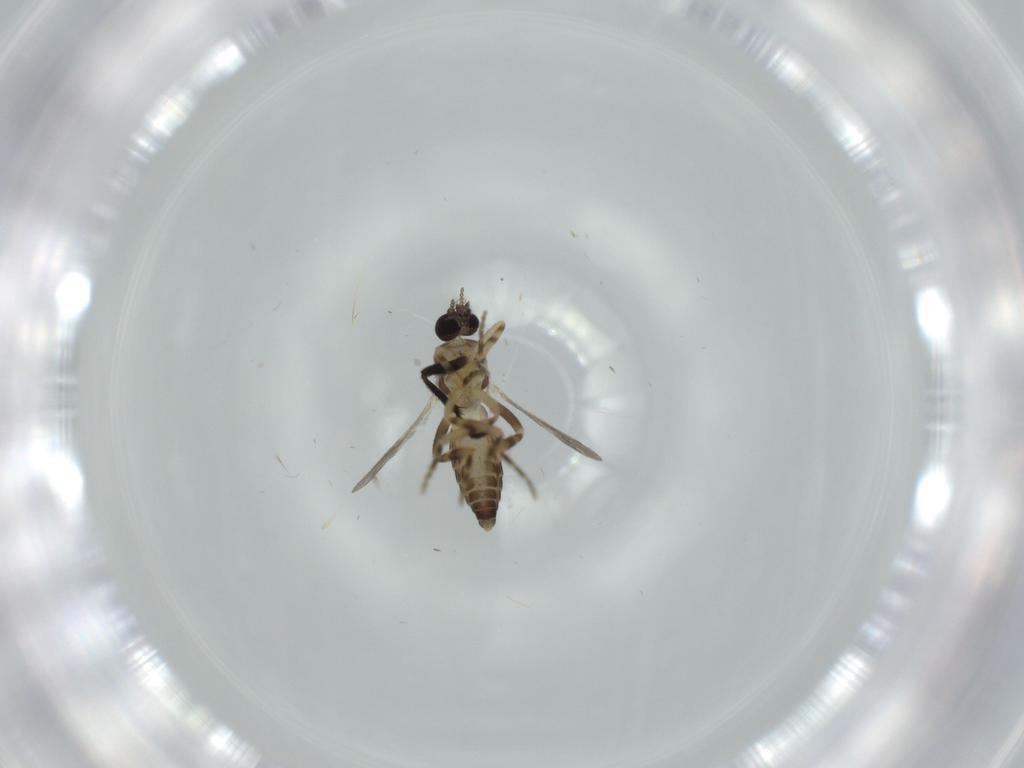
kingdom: Animalia
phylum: Arthropoda
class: Insecta
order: Diptera
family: Ceratopogonidae
